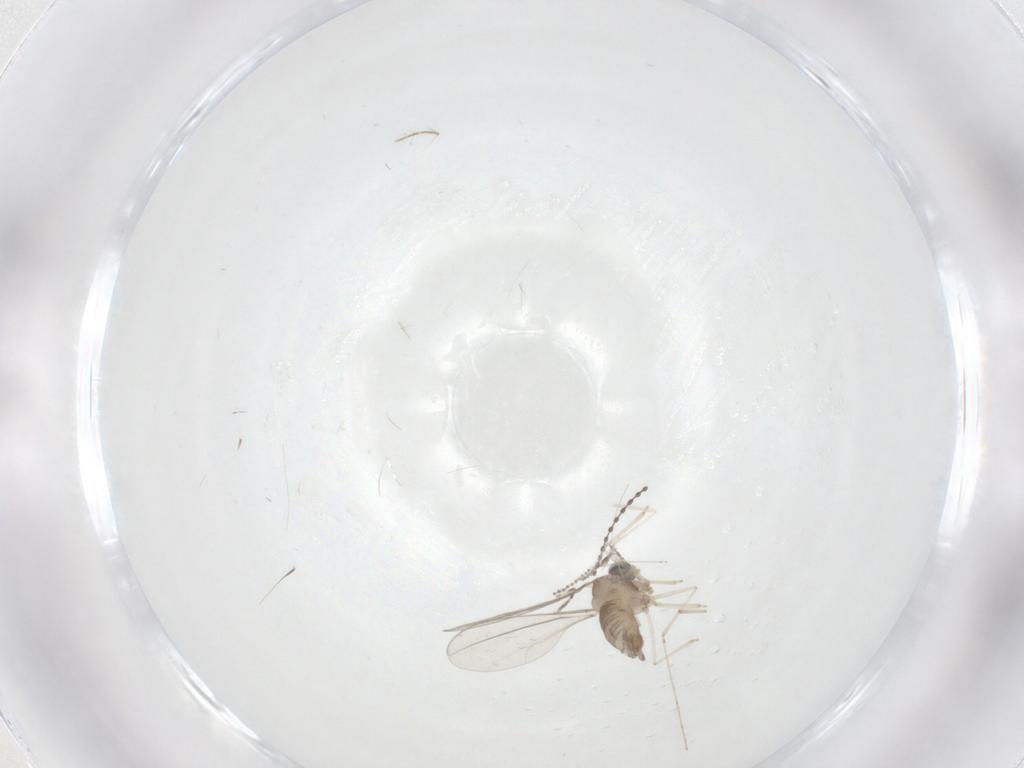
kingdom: Animalia
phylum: Arthropoda
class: Insecta
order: Diptera
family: Cecidomyiidae
